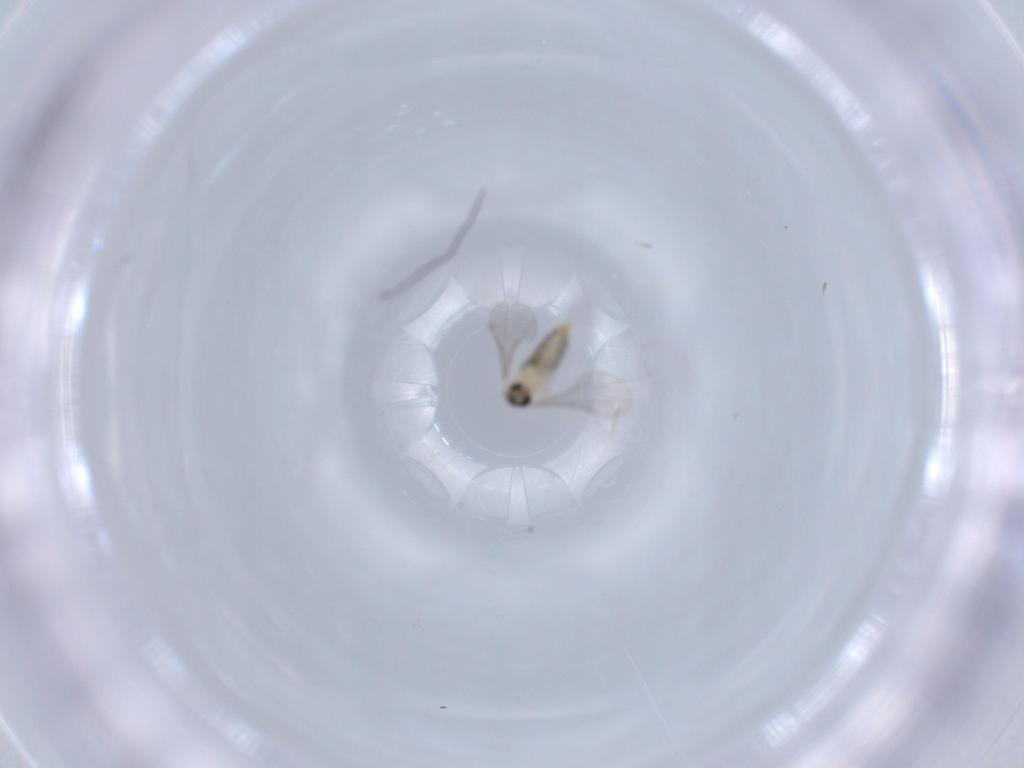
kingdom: Animalia
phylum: Arthropoda
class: Insecta
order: Diptera
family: Sciaridae
